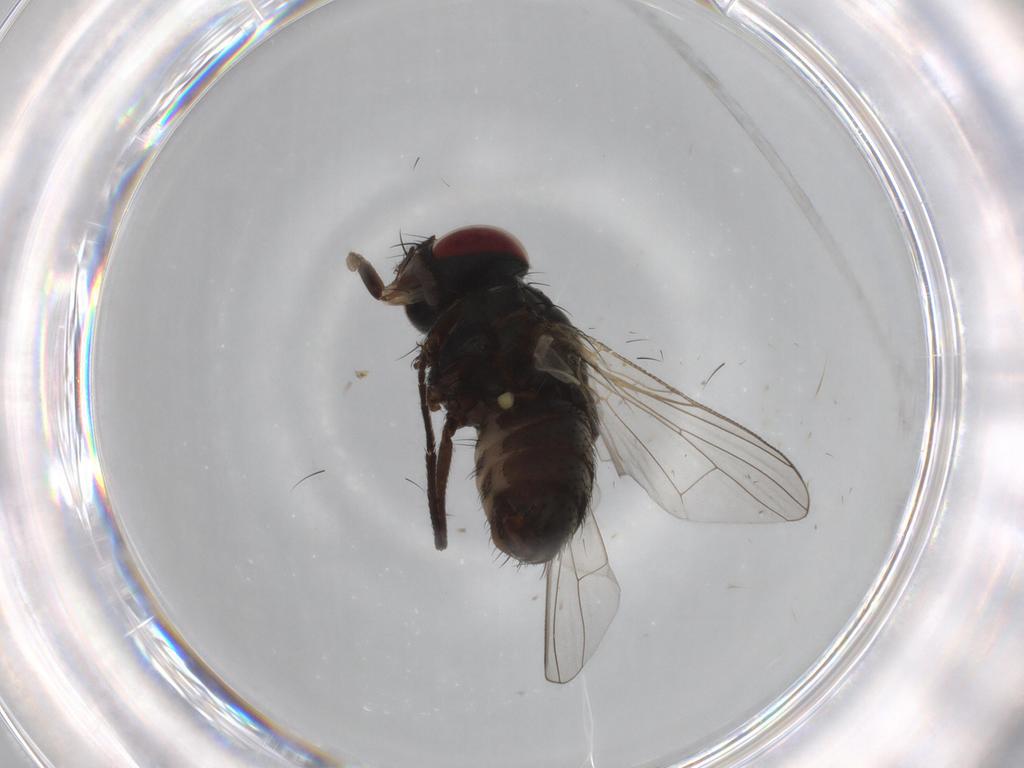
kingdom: Animalia
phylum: Arthropoda
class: Insecta
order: Diptera
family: Muscidae
